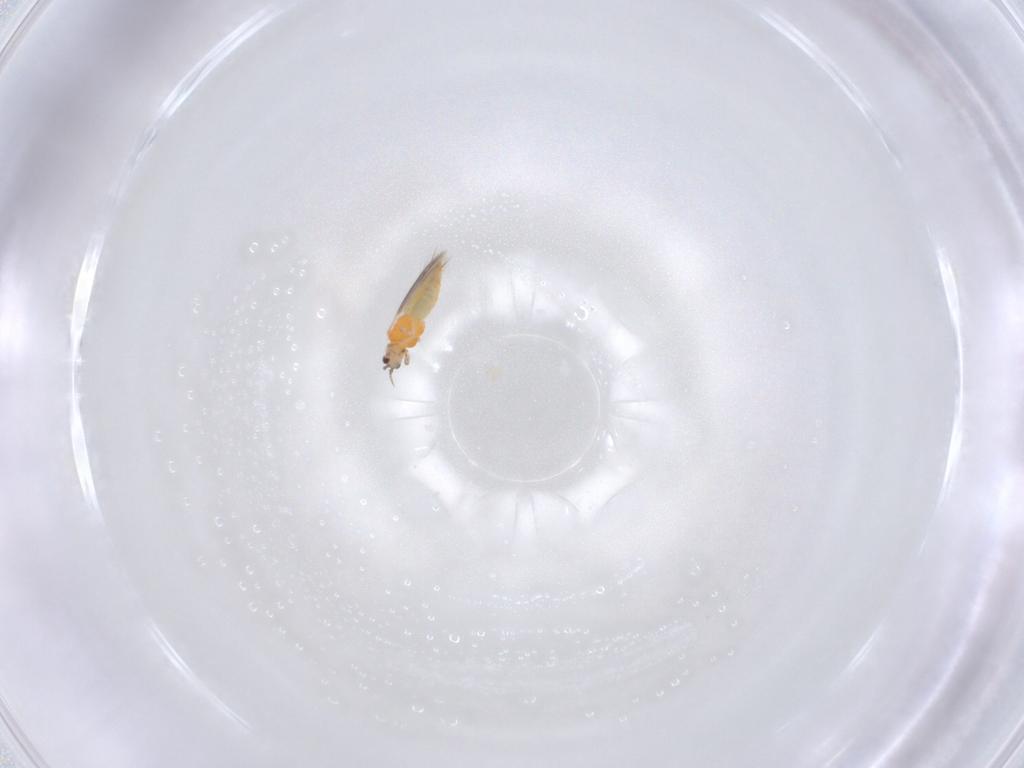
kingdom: Animalia
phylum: Arthropoda
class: Insecta
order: Thysanoptera
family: Thripidae
